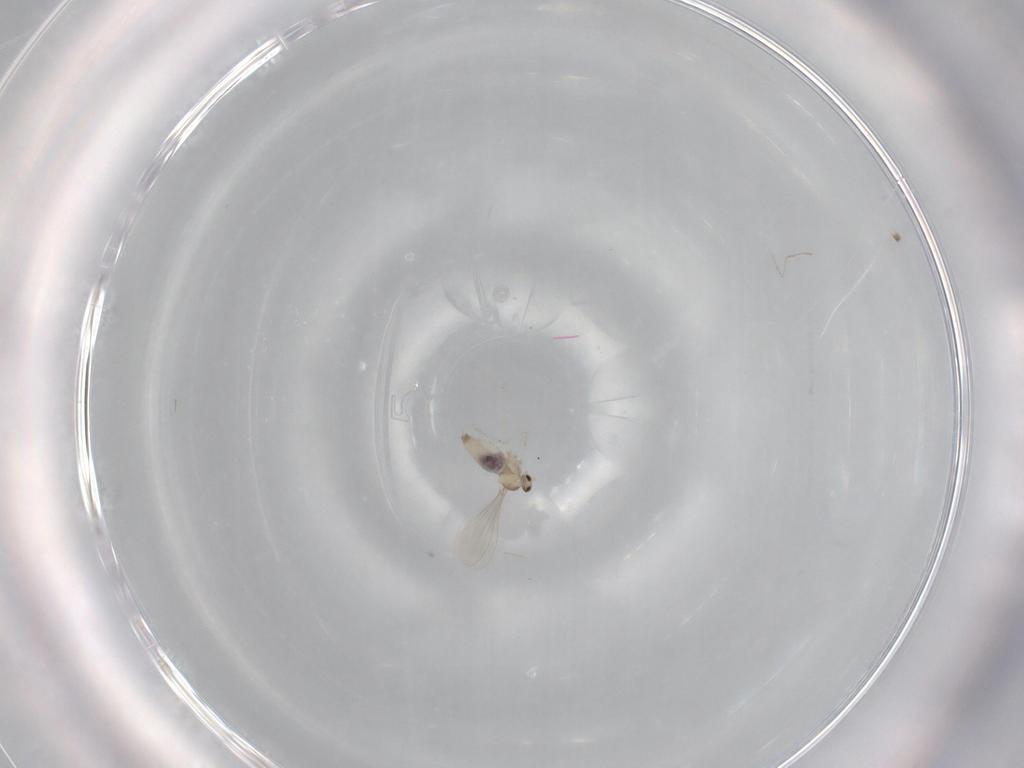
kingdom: Animalia
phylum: Arthropoda
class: Insecta
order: Diptera
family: Cecidomyiidae
